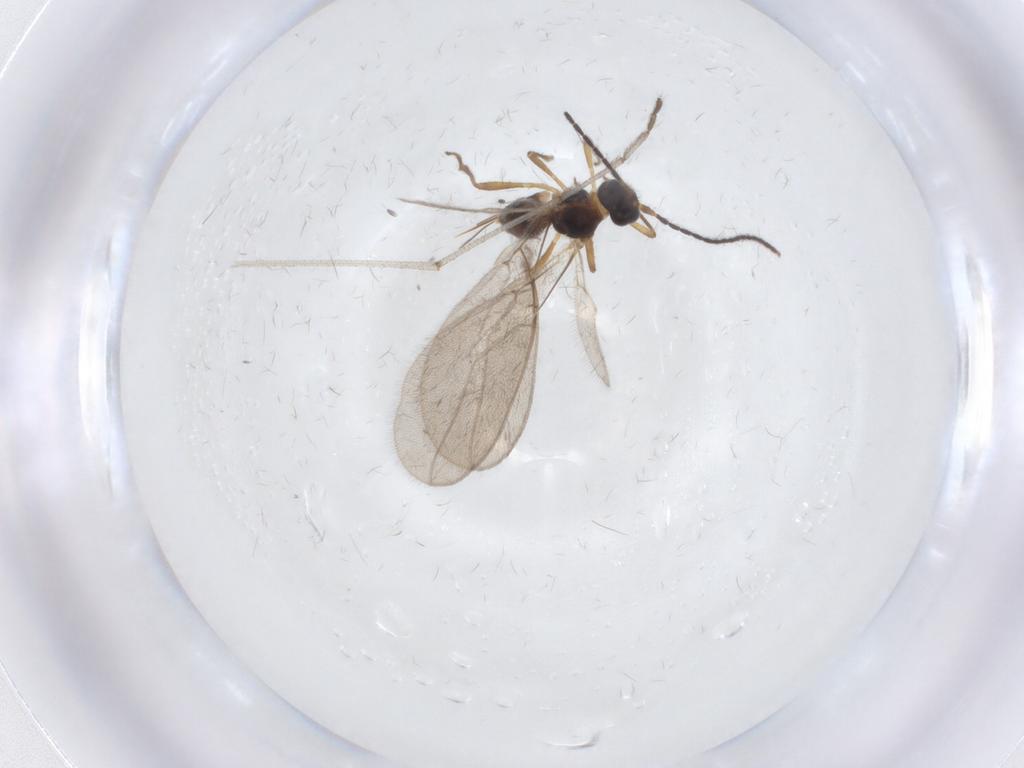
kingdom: Animalia
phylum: Arthropoda
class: Insecta
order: Hymenoptera
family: Braconidae
